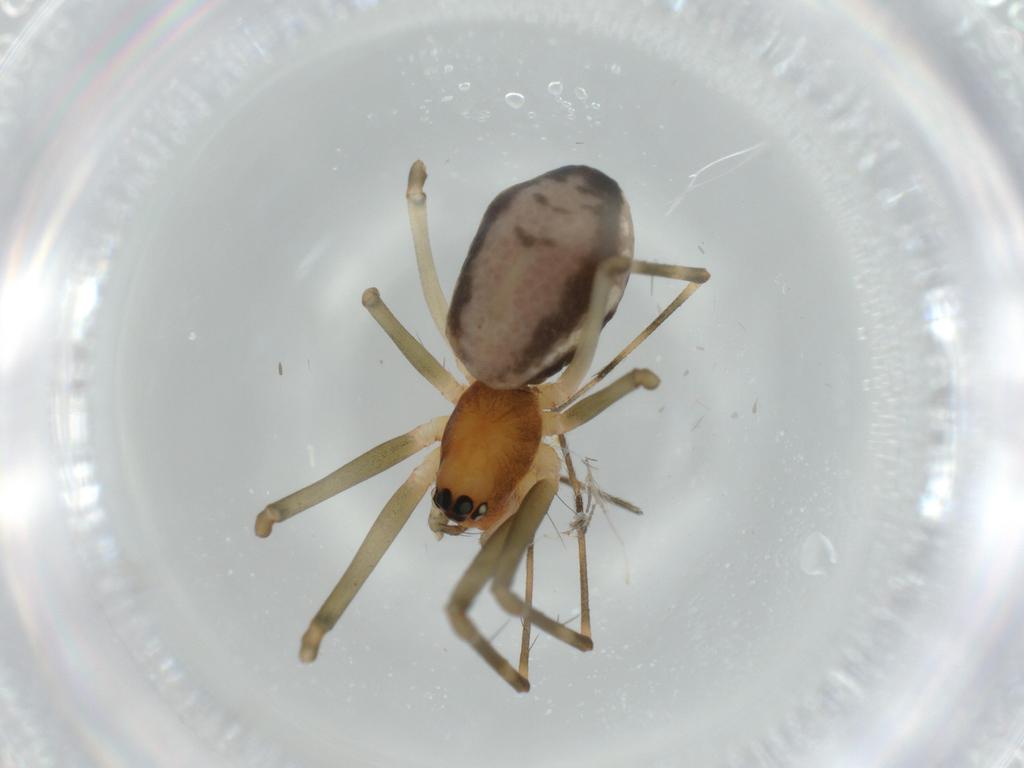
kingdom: Animalia
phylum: Arthropoda
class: Arachnida
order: Araneae
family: Linyphiidae
